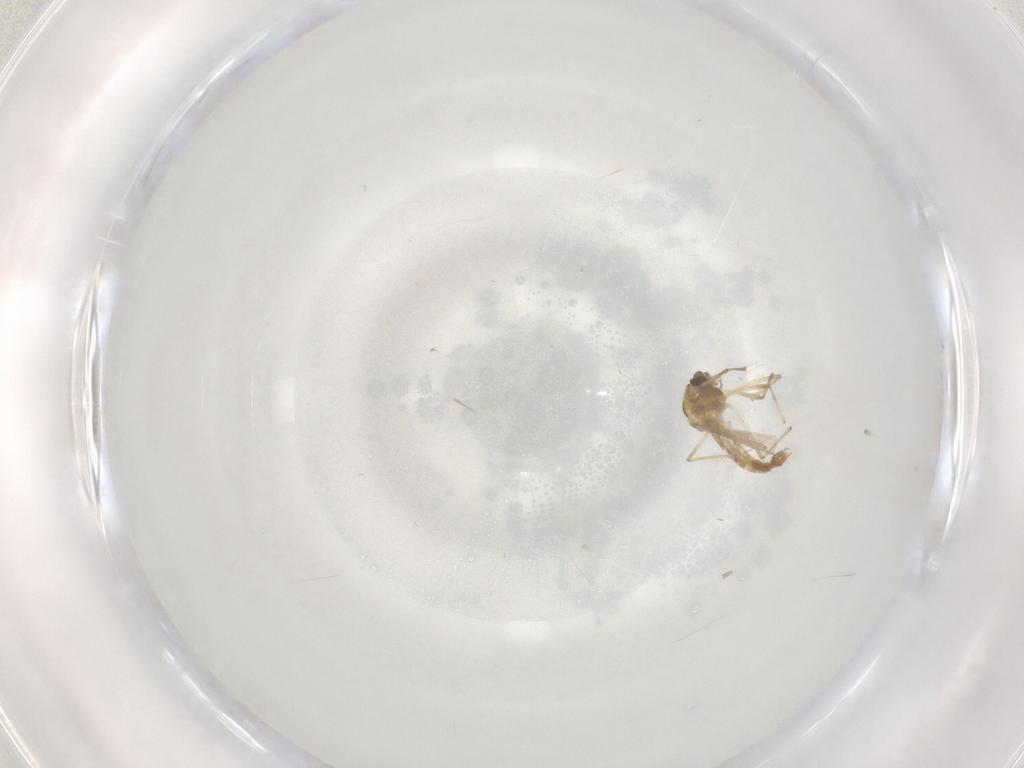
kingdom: Animalia
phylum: Arthropoda
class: Insecta
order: Diptera
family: Chironomidae
